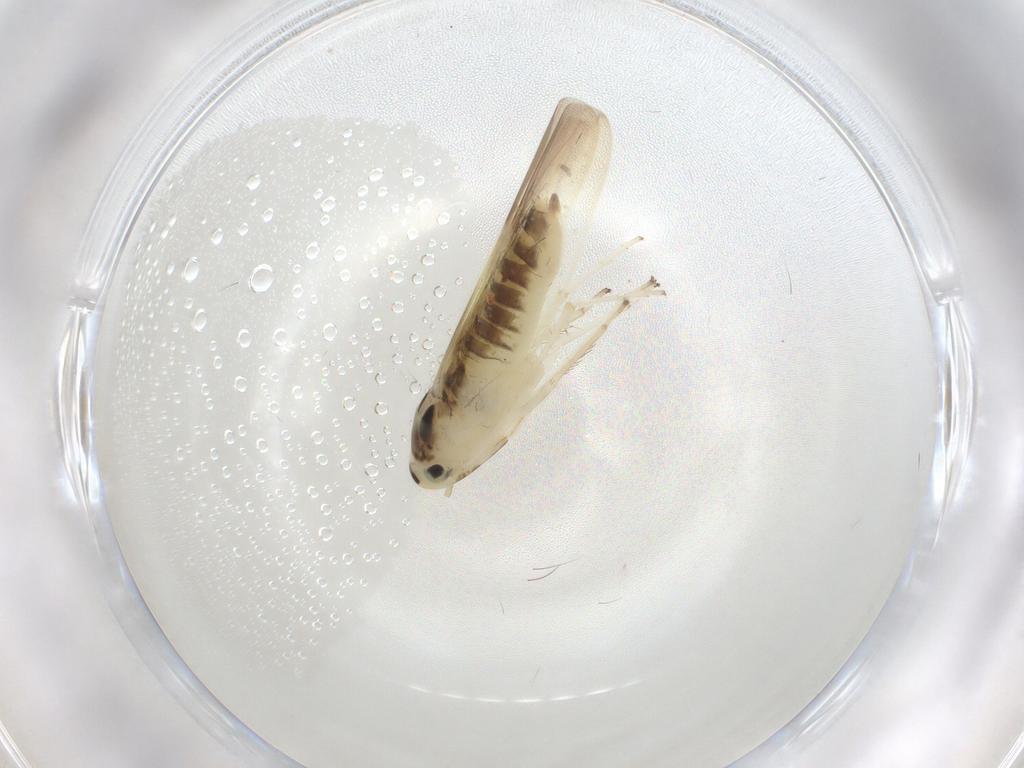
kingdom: Animalia
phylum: Arthropoda
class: Insecta
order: Hemiptera
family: Cicadellidae
